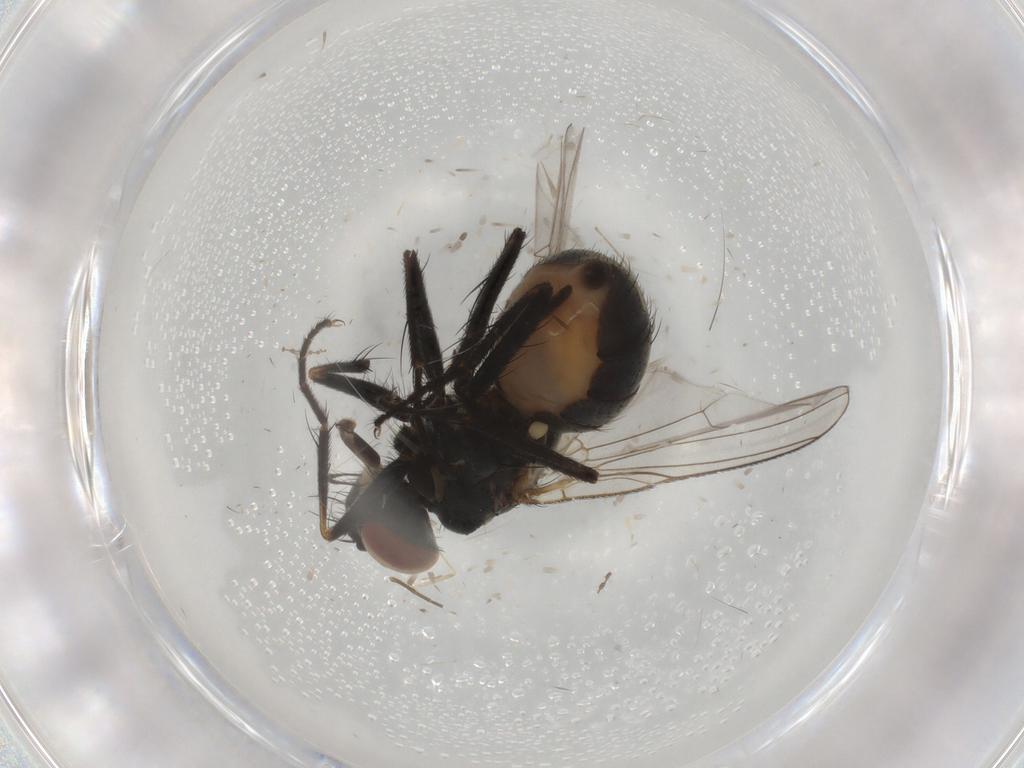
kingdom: Animalia
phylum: Arthropoda
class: Insecta
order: Diptera
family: Muscidae
